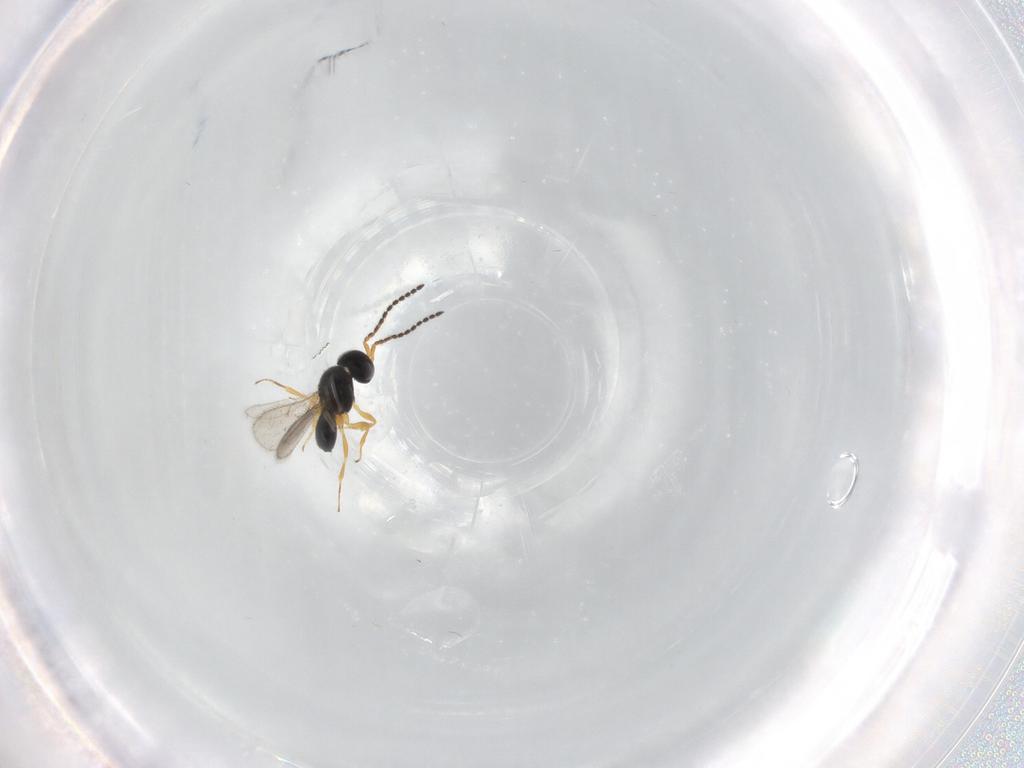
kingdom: Animalia
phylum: Arthropoda
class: Insecta
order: Hymenoptera
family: Scelionidae
